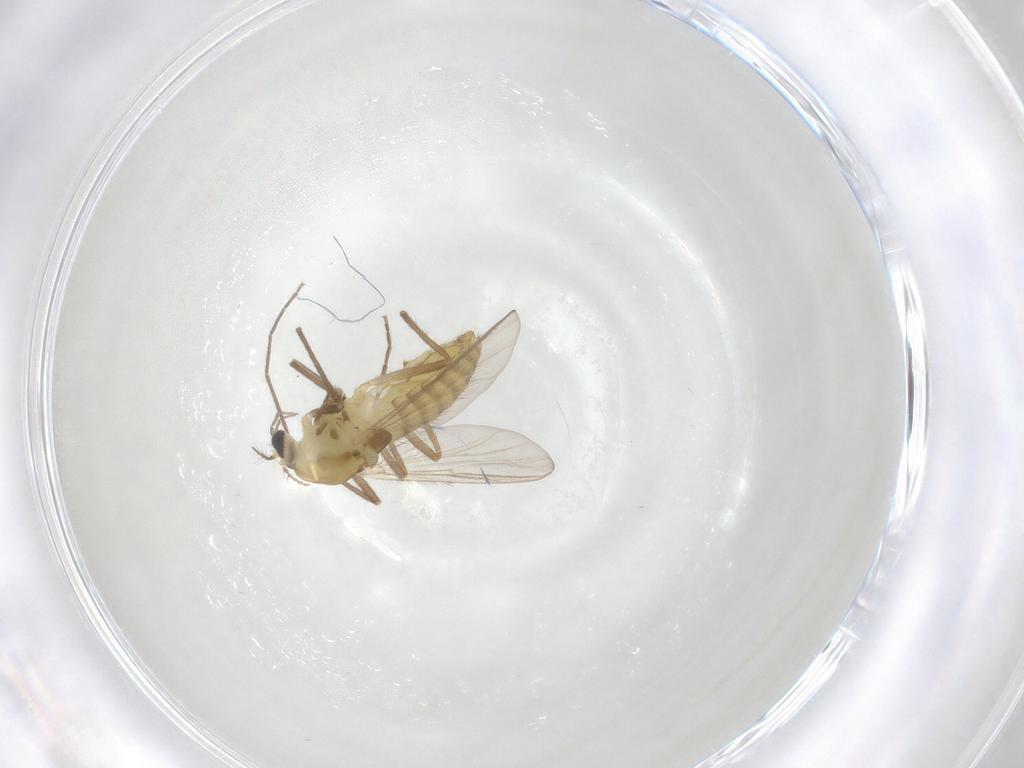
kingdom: Animalia
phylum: Arthropoda
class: Insecta
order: Diptera
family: Chironomidae
